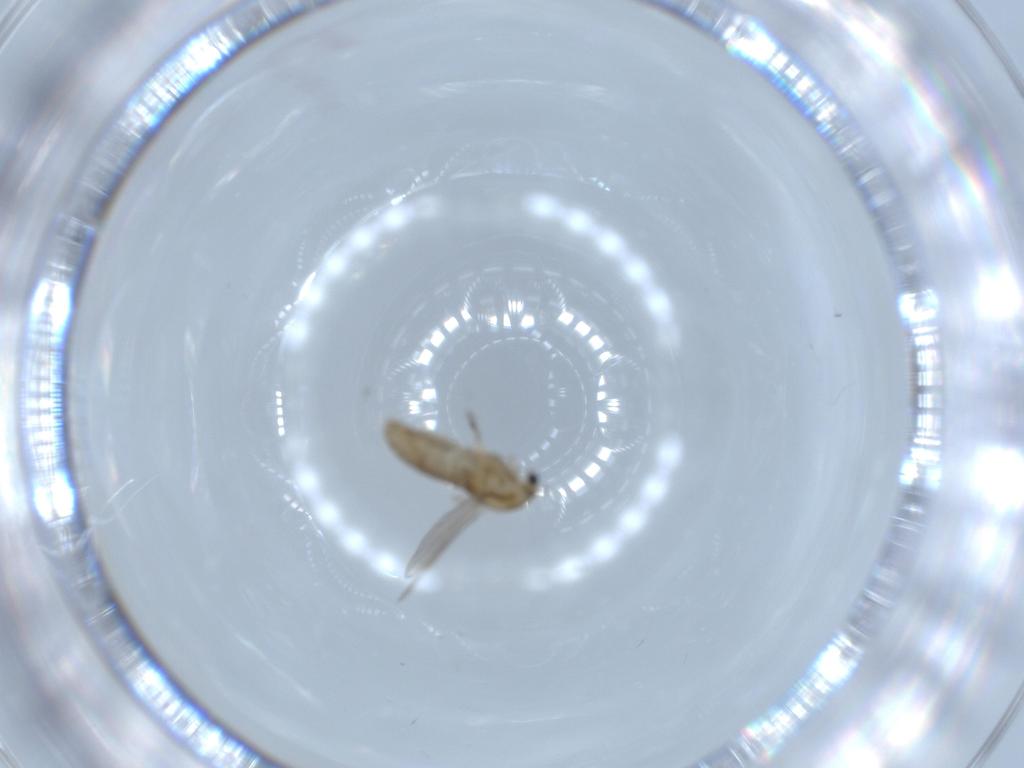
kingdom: Animalia
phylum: Arthropoda
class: Insecta
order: Diptera
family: Chironomidae
